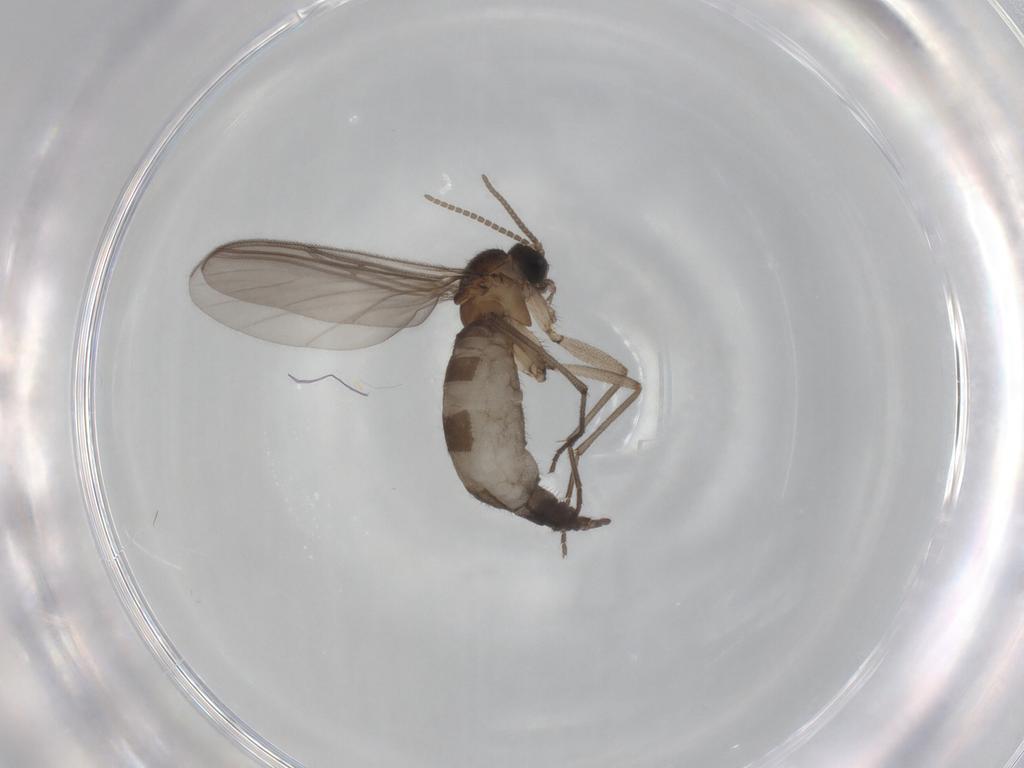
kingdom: Animalia
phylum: Arthropoda
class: Insecta
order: Diptera
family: Sciaridae
